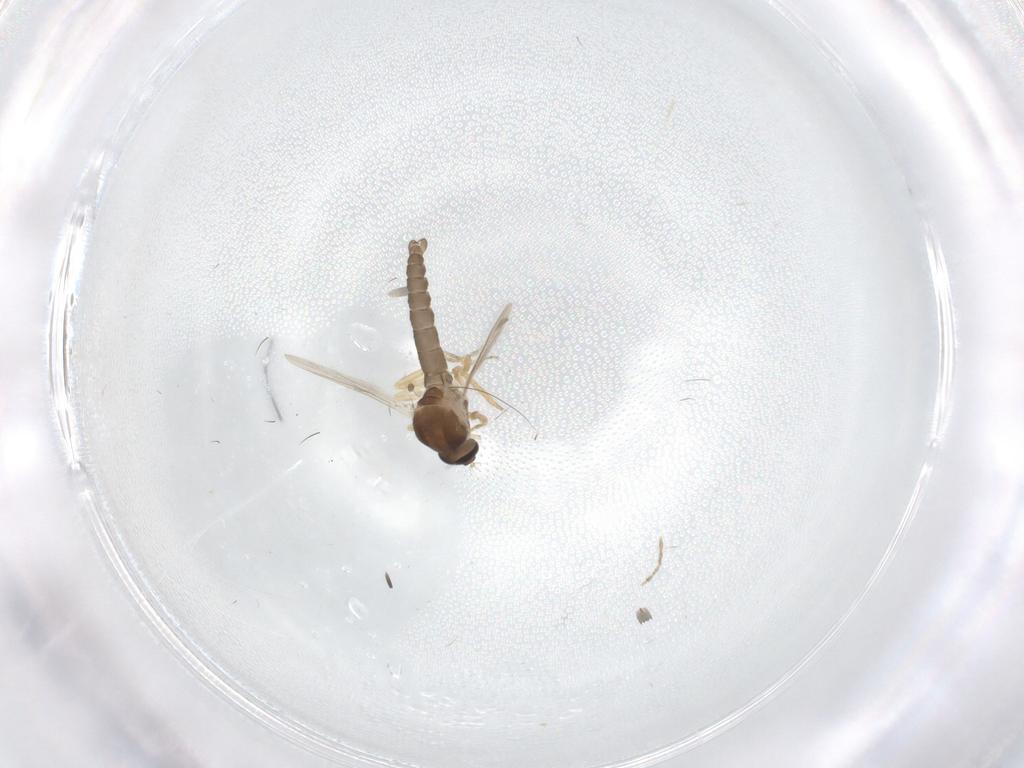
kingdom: Animalia
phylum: Arthropoda
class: Insecta
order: Diptera
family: Ceratopogonidae
